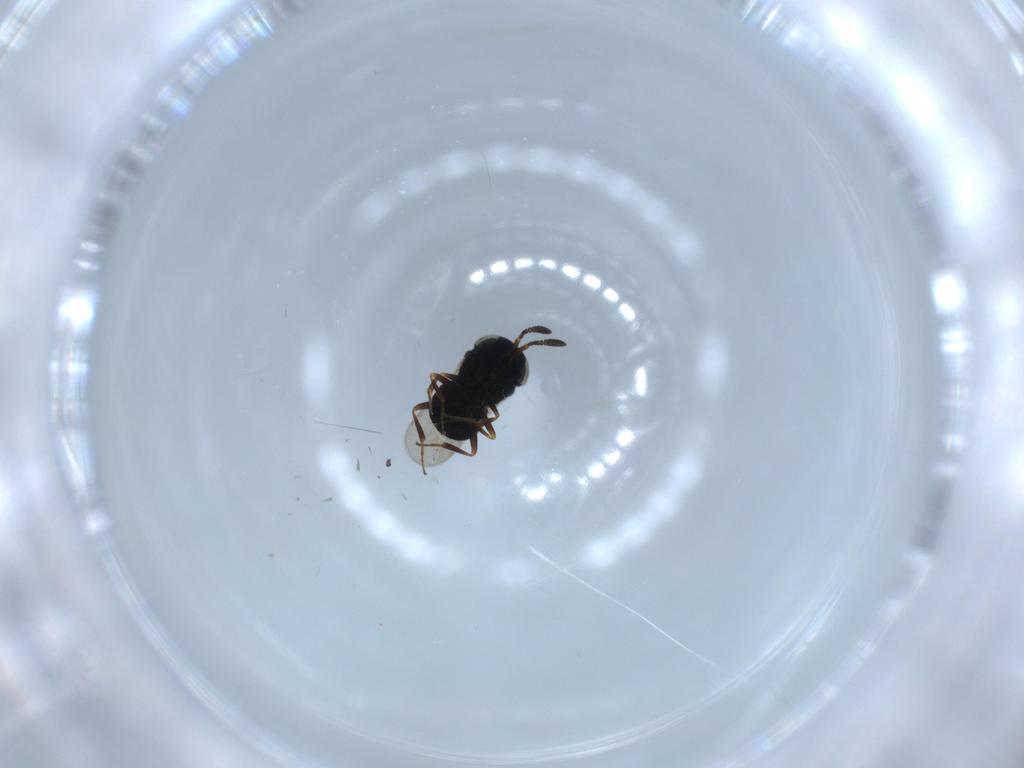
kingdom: Animalia
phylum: Arthropoda
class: Insecta
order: Hymenoptera
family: Scelionidae
